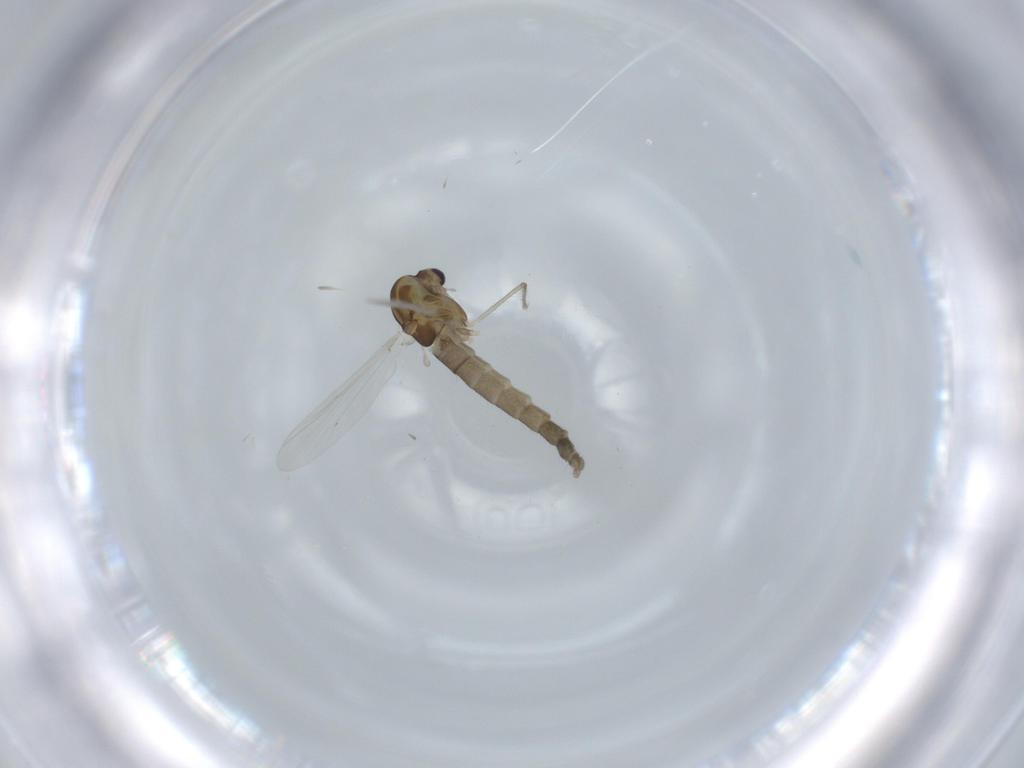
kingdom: Animalia
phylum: Arthropoda
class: Insecta
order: Diptera
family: Chironomidae
